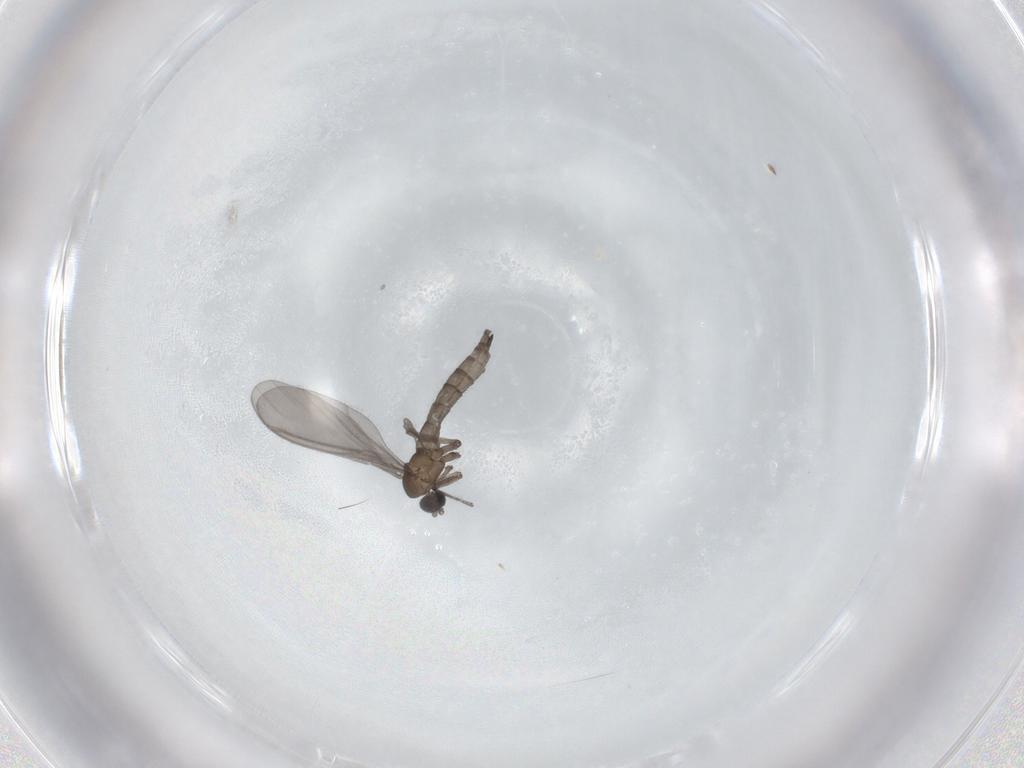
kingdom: Animalia
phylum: Arthropoda
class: Insecta
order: Diptera
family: Sciaridae
